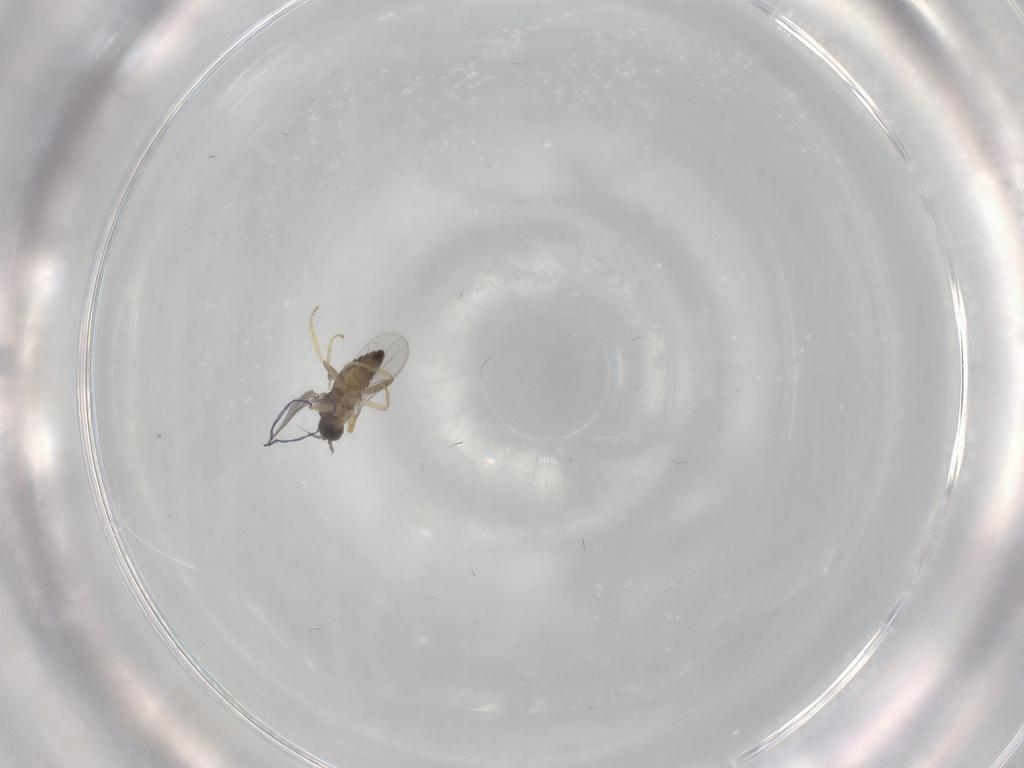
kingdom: Animalia
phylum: Arthropoda
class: Insecta
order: Diptera
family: Hybotidae
